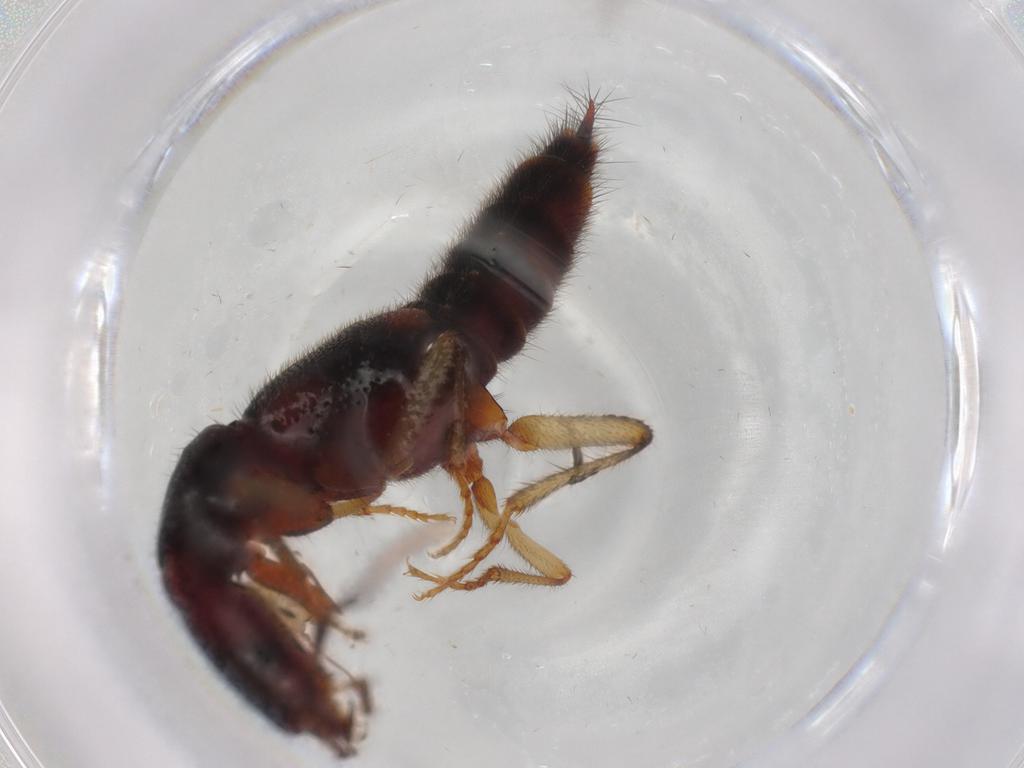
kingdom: Animalia
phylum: Arthropoda
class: Insecta
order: Coleoptera
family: Staphylinidae
